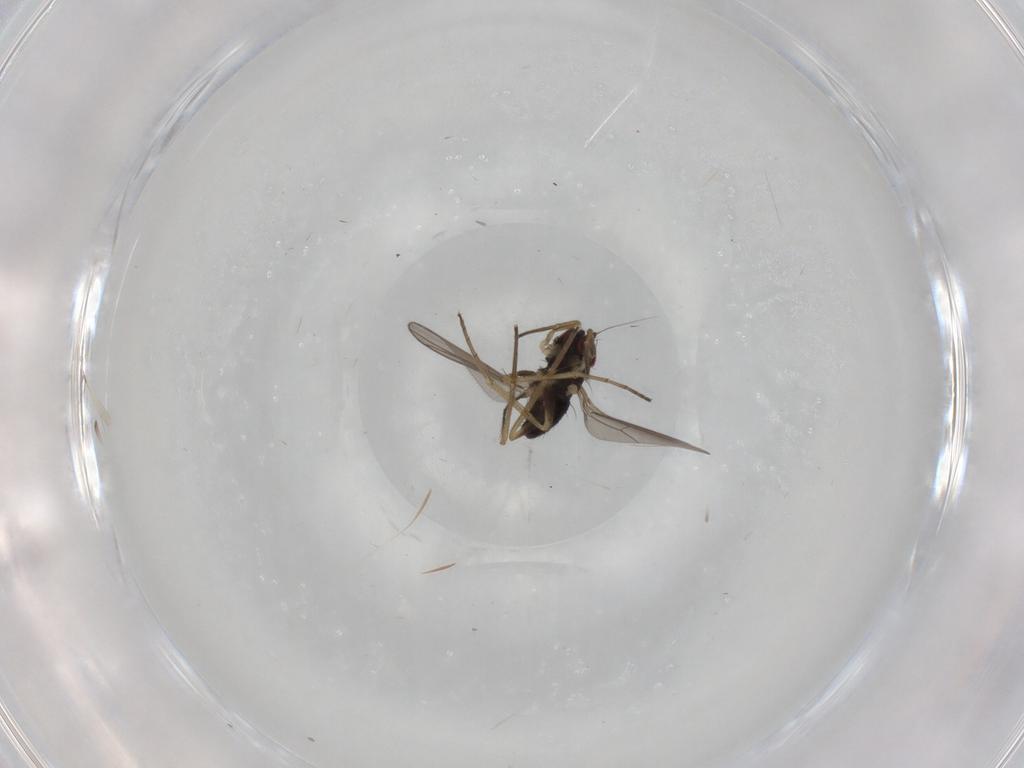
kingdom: Animalia
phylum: Arthropoda
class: Insecta
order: Diptera
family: Dolichopodidae
